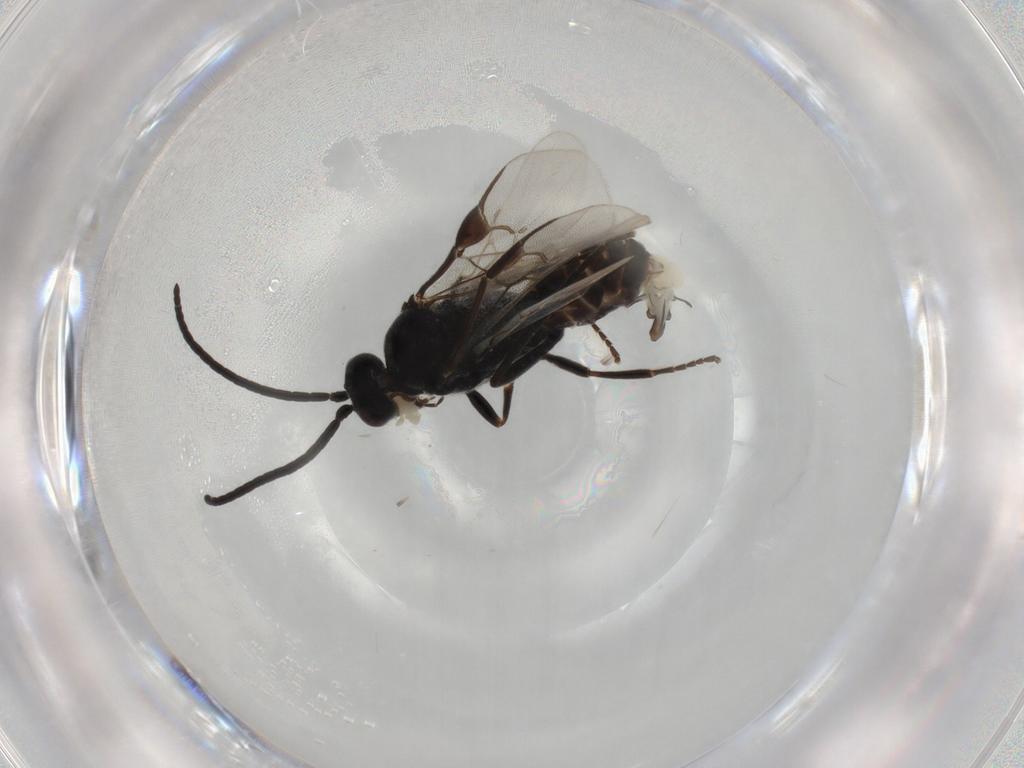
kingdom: Animalia
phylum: Arthropoda
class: Insecta
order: Hymenoptera
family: Braconidae
